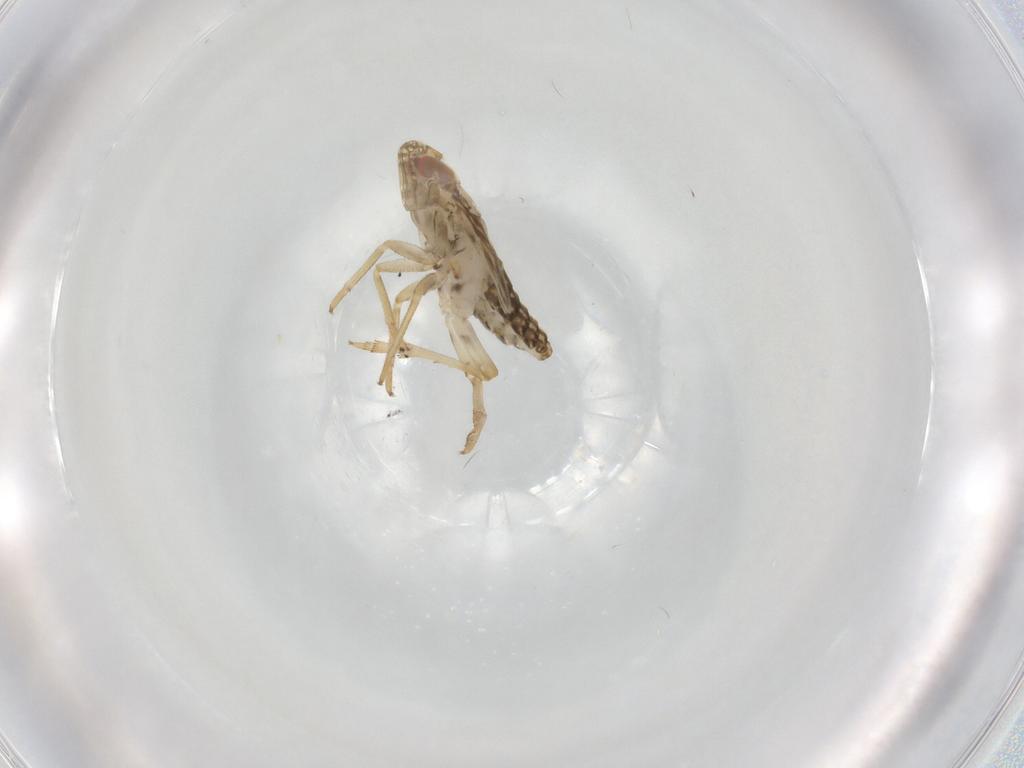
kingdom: Animalia
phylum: Arthropoda
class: Insecta
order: Hemiptera
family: Delphacidae
